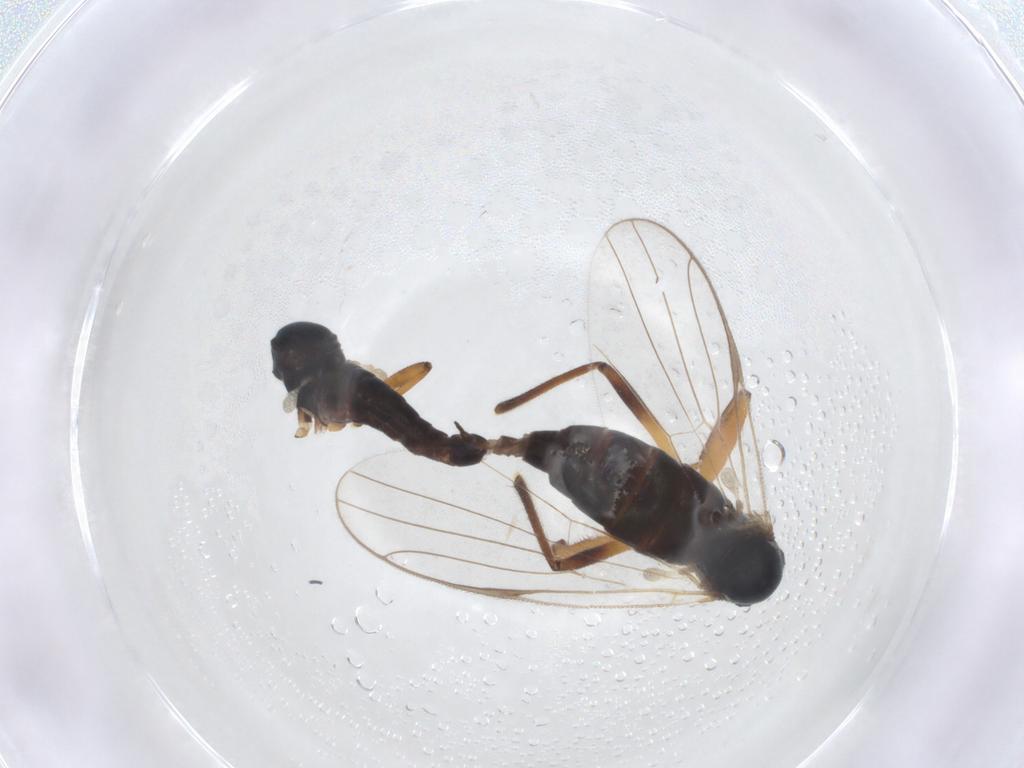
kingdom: Animalia
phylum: Arthropoda
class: Insecta
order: Diptera
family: Hybotidae
